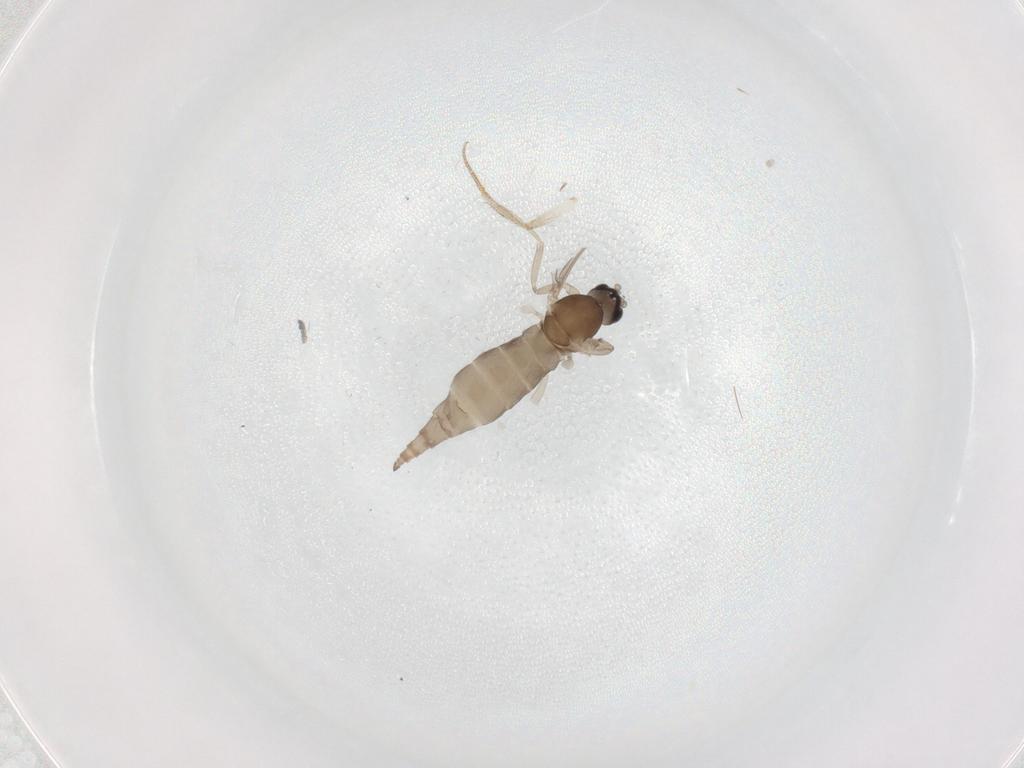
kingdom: Animalia
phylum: Arthropoda
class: Insecta
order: Diptera
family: Drosophilidae
